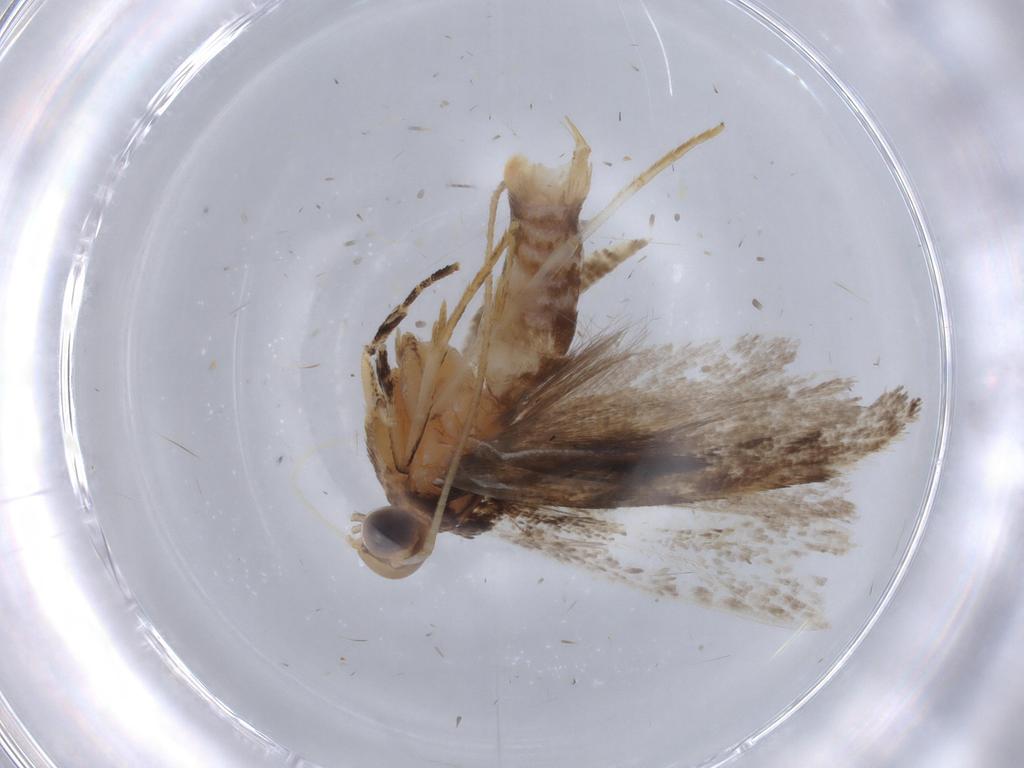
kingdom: Animalia
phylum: Arthropoda
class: Insecta
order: Lepidoptera
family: Gelechiidae
